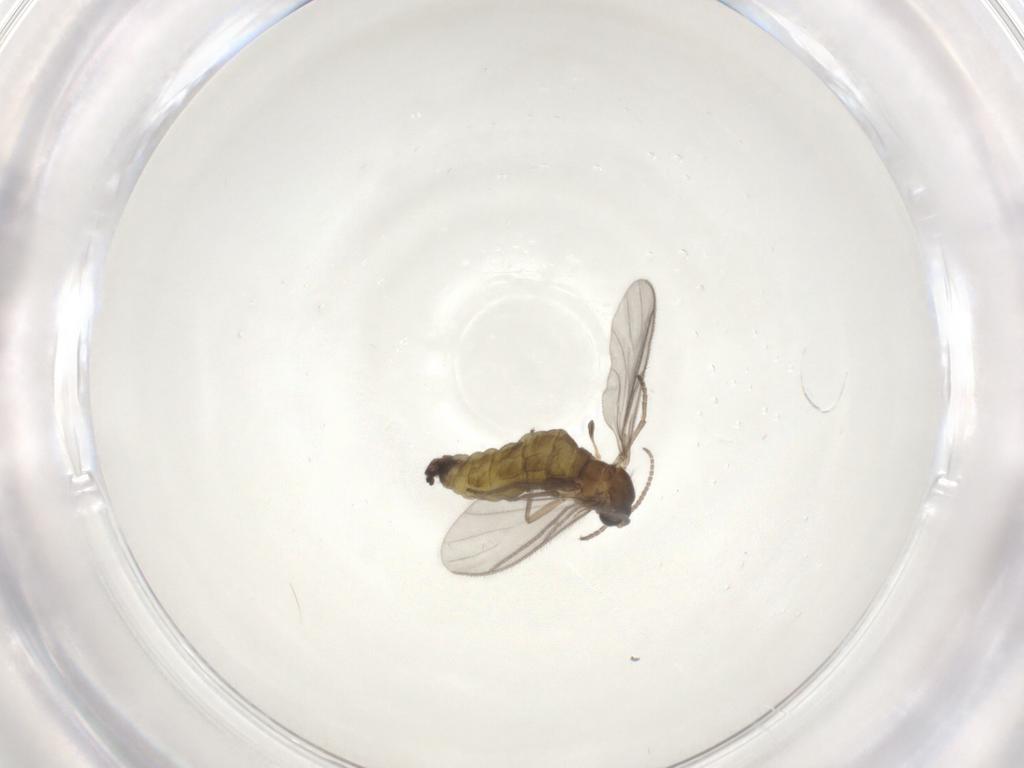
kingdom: Animalia
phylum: Arthropoda
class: Insecta
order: Diptera
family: Sciaridae
